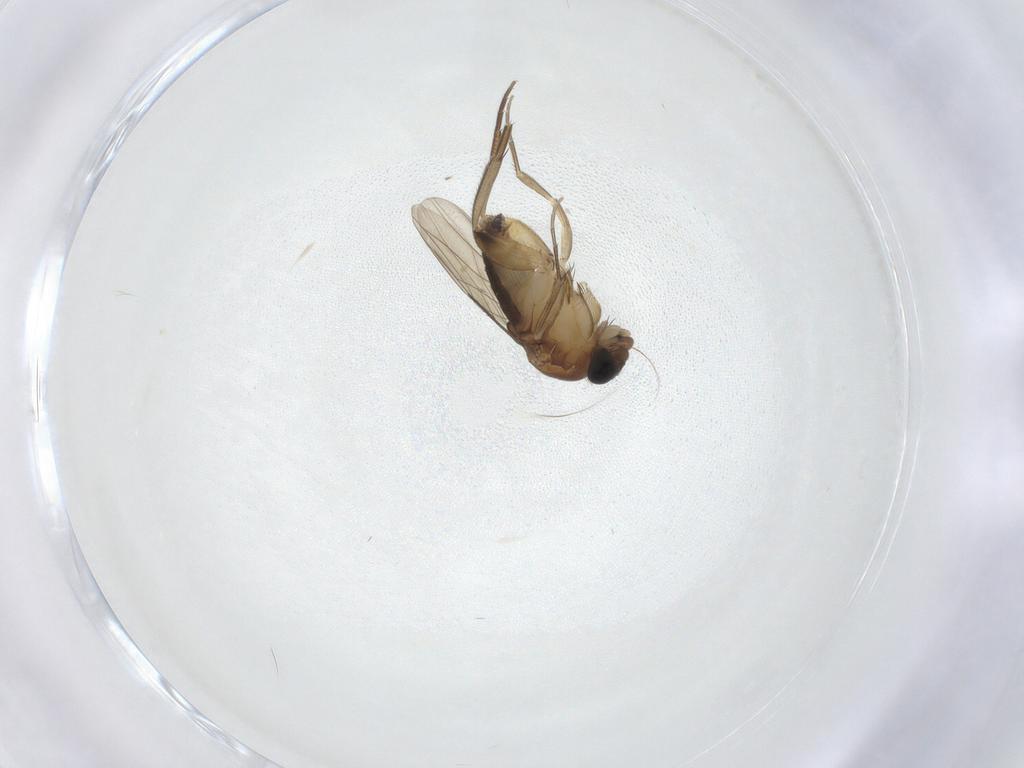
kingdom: Animalia
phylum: Arthropoda
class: Insecta
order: Diptera
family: Phoridae
